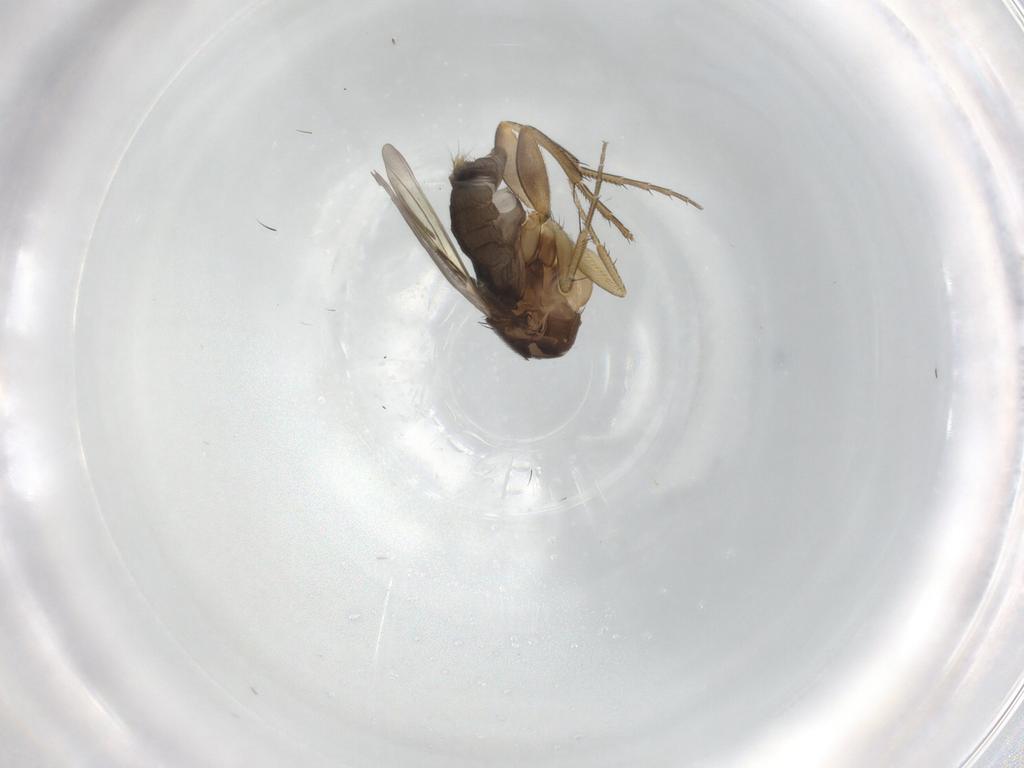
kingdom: Animalia
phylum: Arthropoda
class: Insecta
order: Diptera
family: Phoridae
